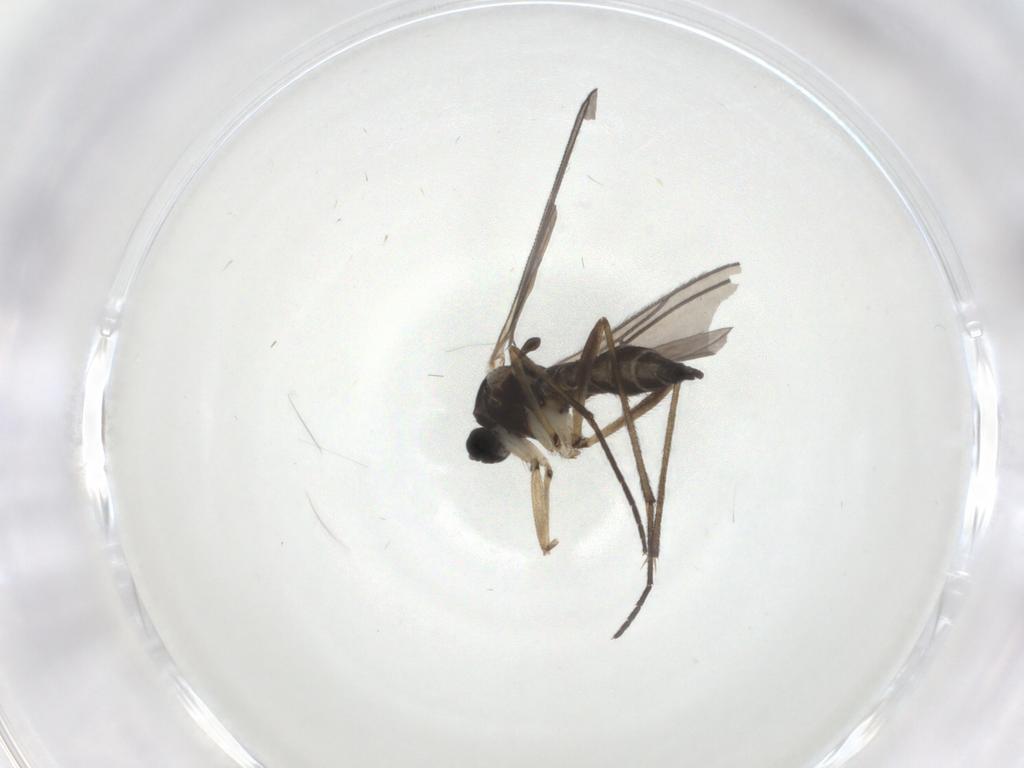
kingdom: Animalia
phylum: Arthropoda
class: Insecta
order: Diptera
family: Sciaridae
